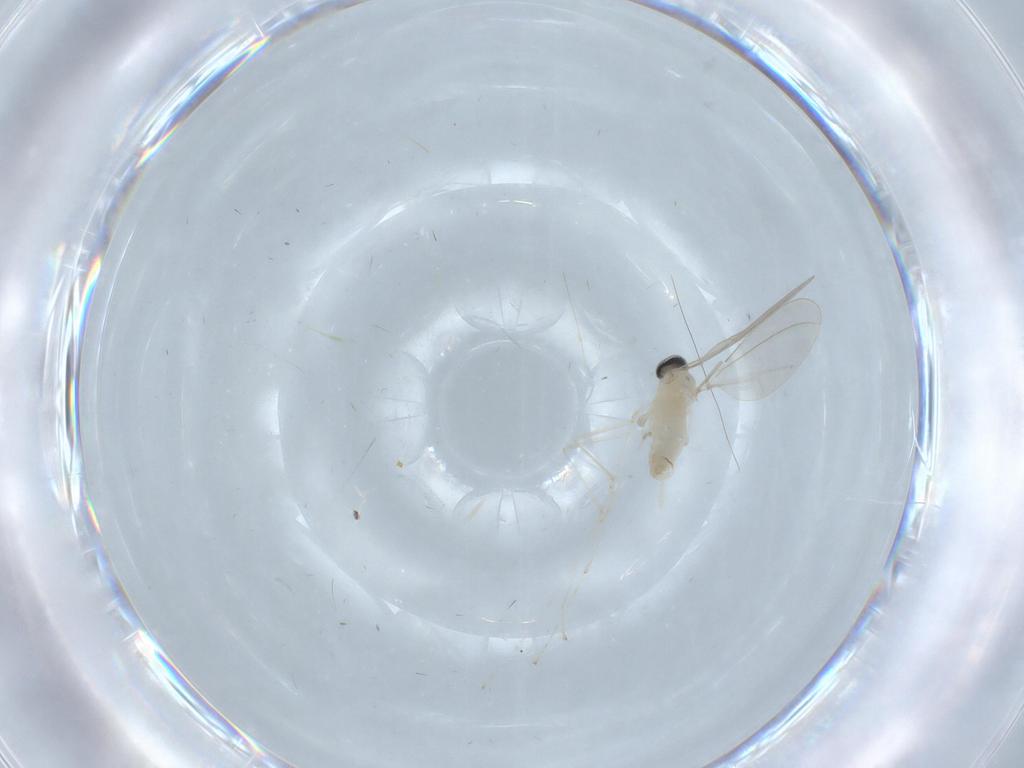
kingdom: Animalia
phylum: Arthropoda
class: Insecta
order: Diptera
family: Cecidomyiidae
